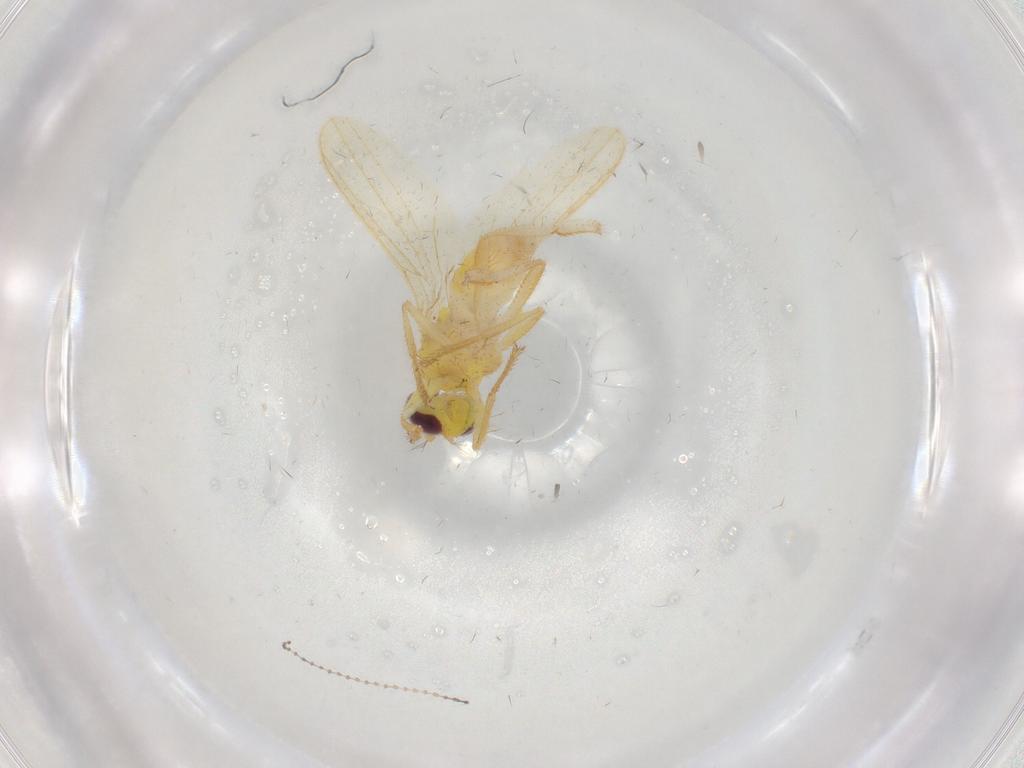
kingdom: Animalia
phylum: Arthropoda
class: Insecta
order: Diptera
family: Periscelididae
